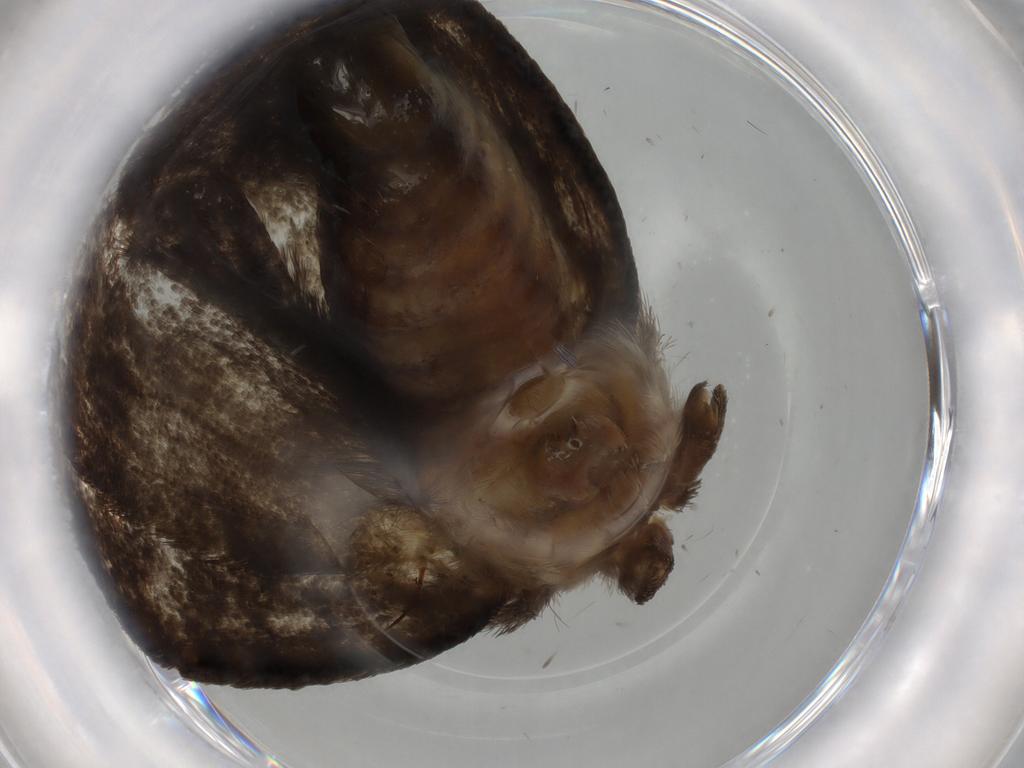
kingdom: Animalia
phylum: Arthropoda
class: Insecta
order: Lepidoptera
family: Tineidae
